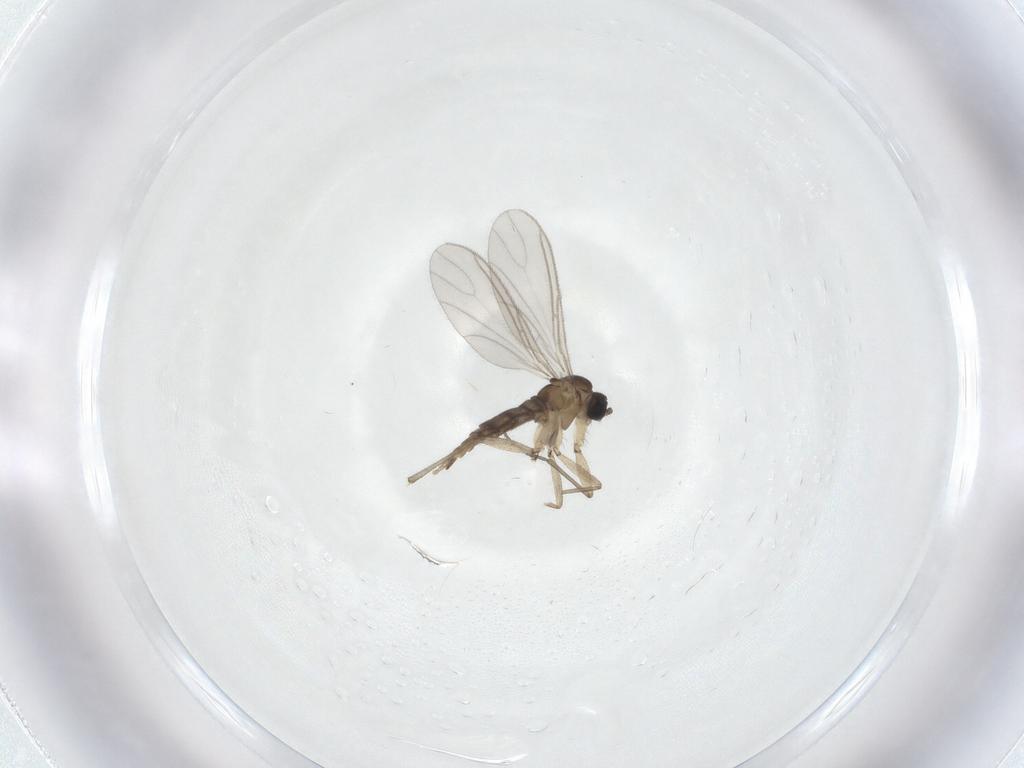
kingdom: Animalia
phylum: Arthropoda
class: Insecta
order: Diptera
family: Sciaridae
